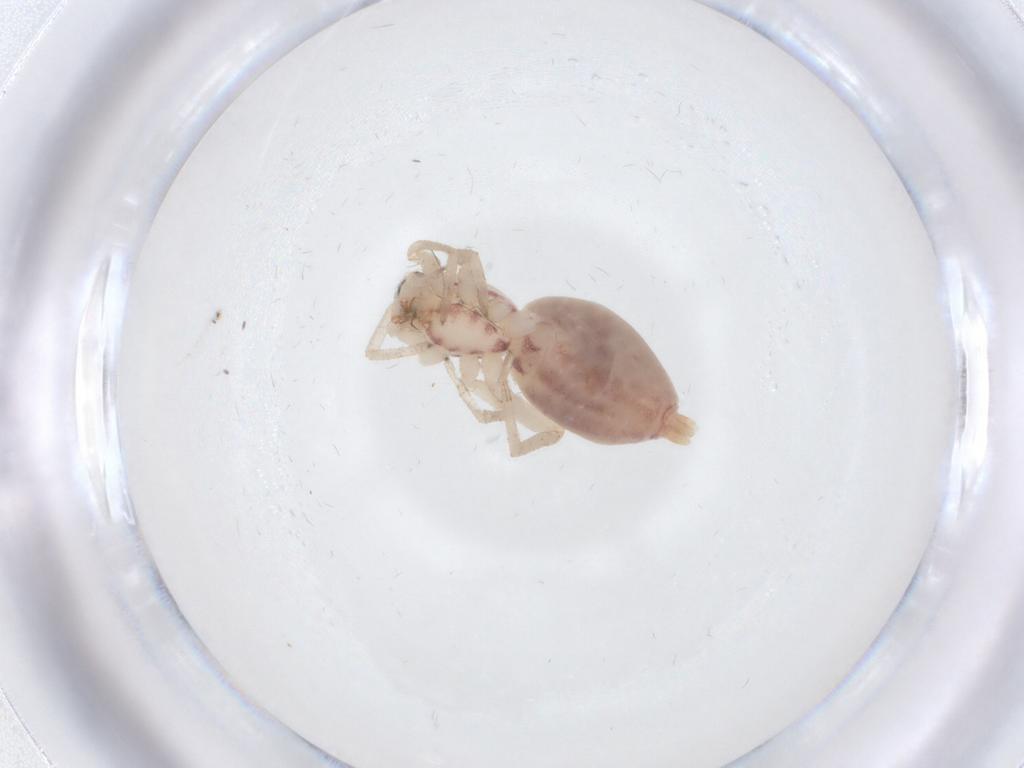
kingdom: Animalia
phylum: Arthropoda
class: Arachnida
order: Araneae
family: Clubionidae
